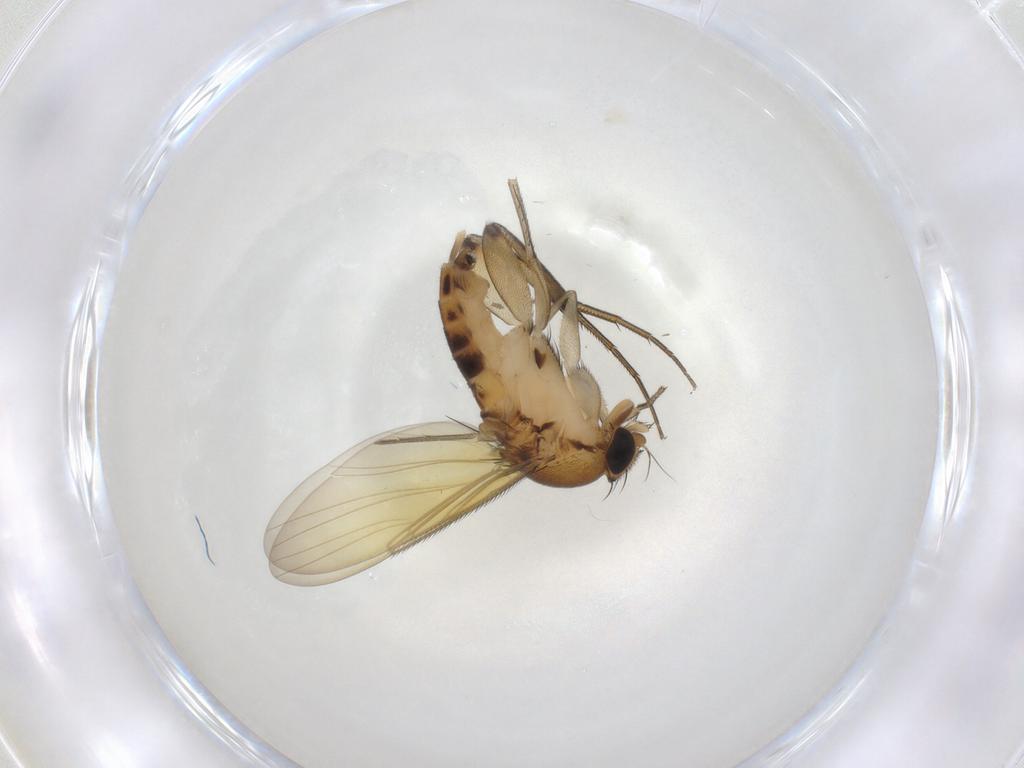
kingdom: Animalia
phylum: Arthropoda
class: Insecta
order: Diptera
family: Phoridae
